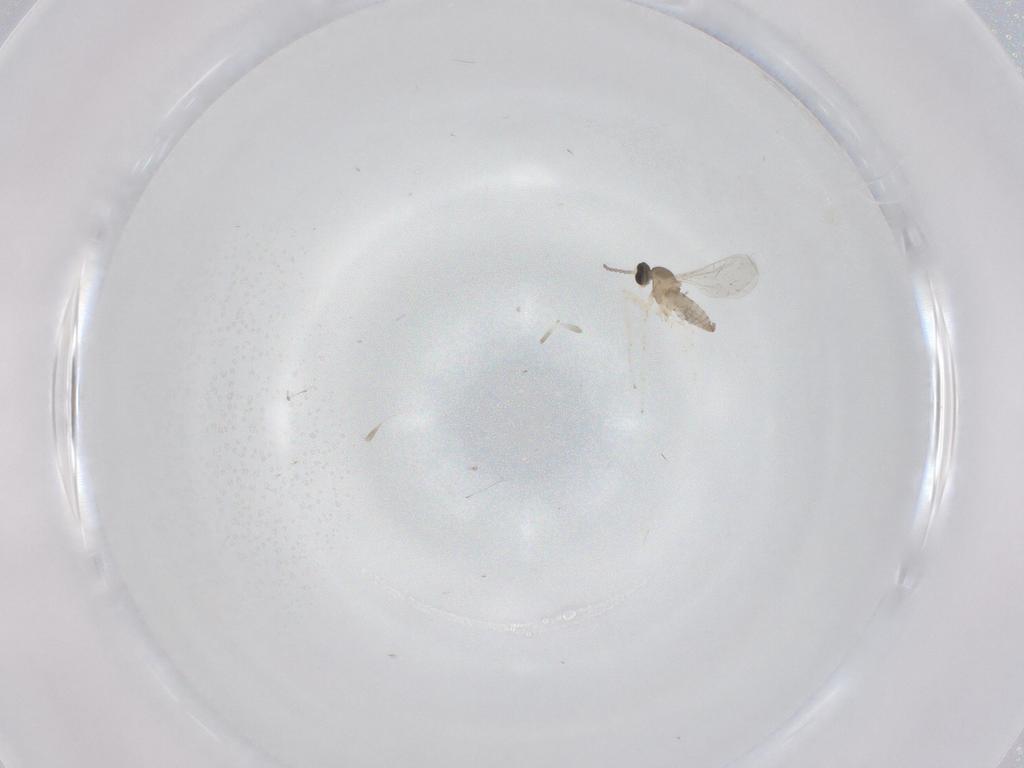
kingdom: Animalia
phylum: Arthropoda
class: Insecta
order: Diptera
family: Cecidomyiidae
